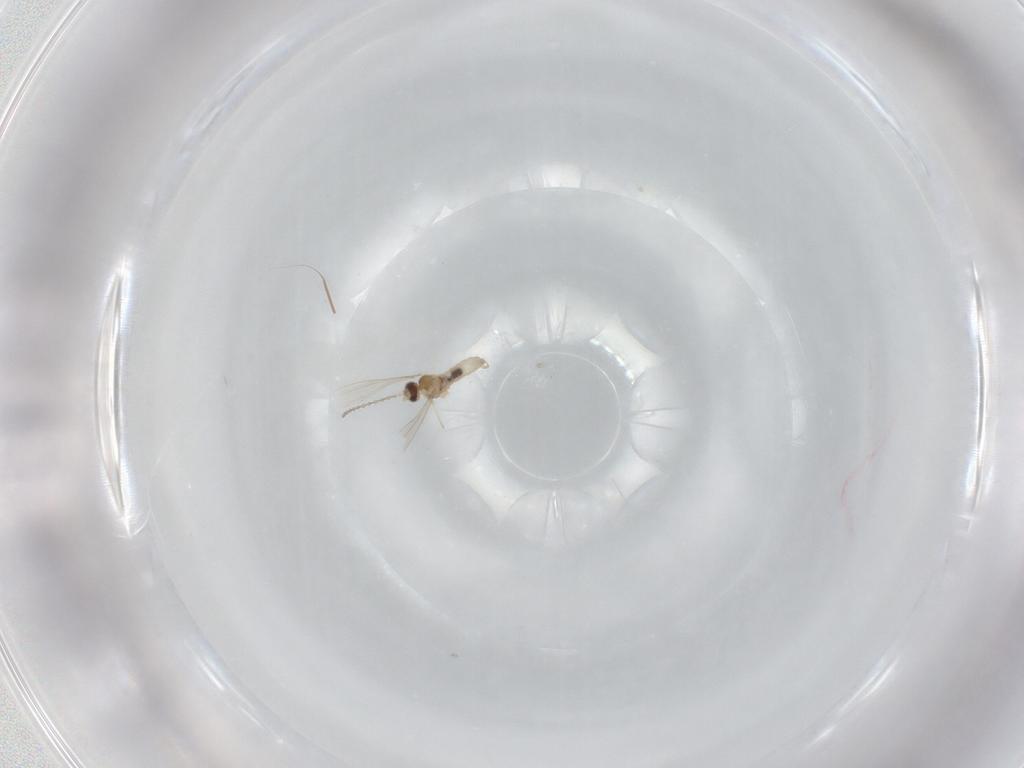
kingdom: Animalia
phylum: Arthropoda
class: Insecta
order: Diptera
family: Cecidomyiidae
